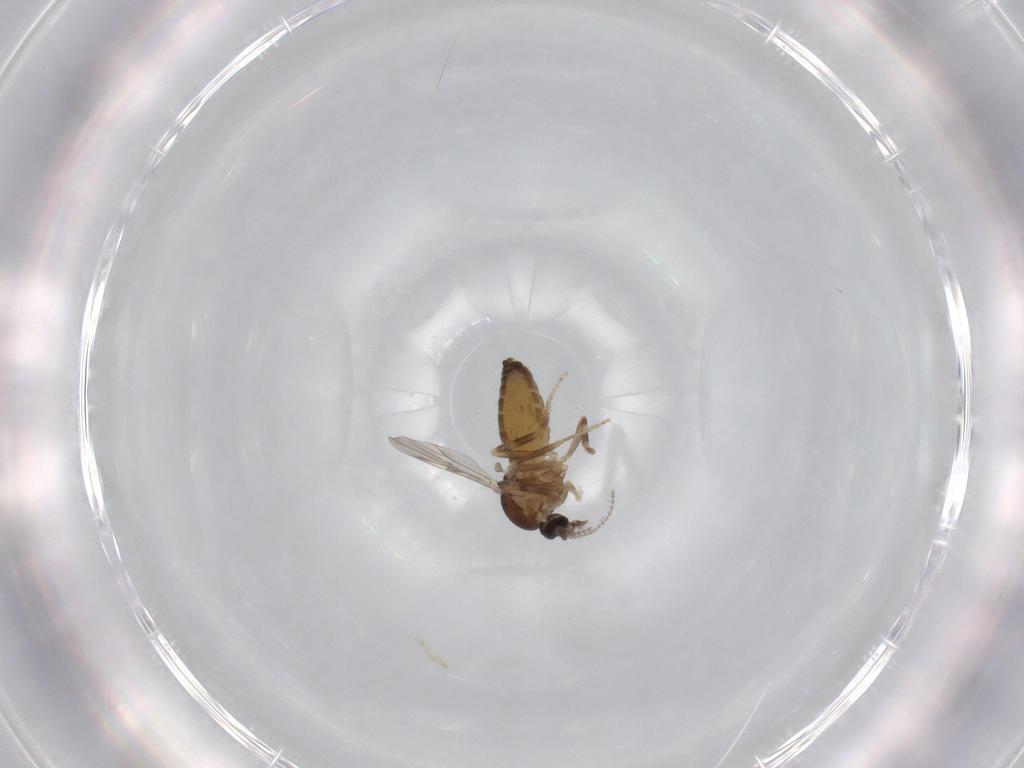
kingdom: Animalia
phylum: Arthropoda
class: Insecta
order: Diptera
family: Ceratopogonidae
